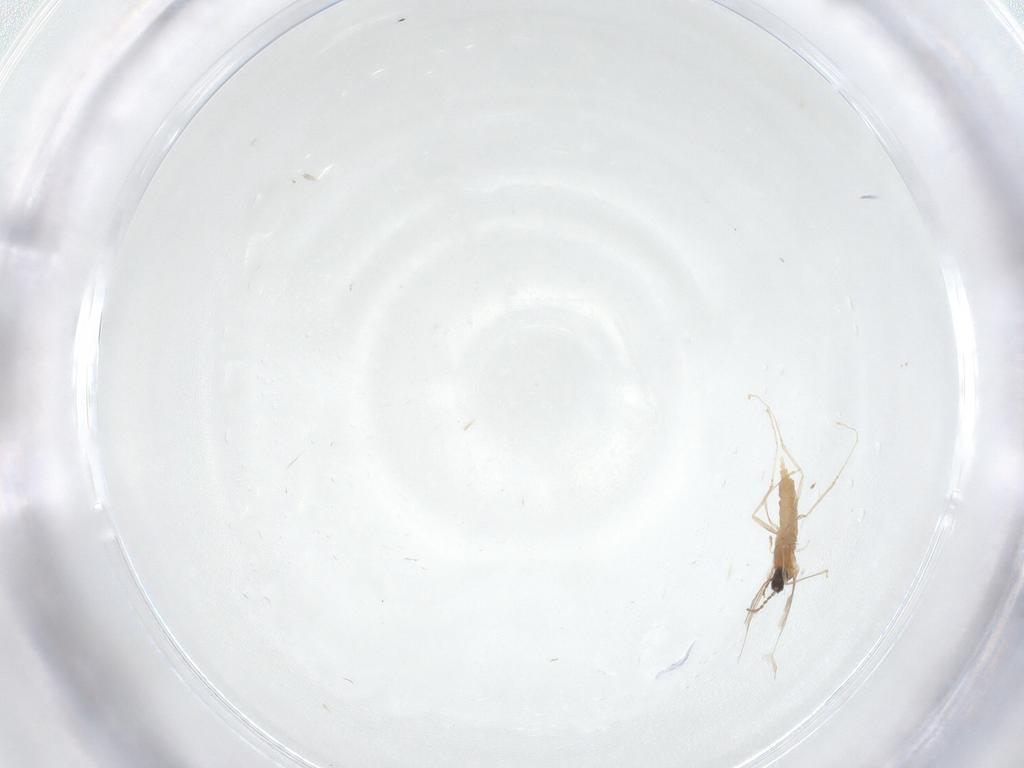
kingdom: Animalia
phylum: Arthropoda
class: Insecta
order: Diptera
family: Cecidomyiidae
